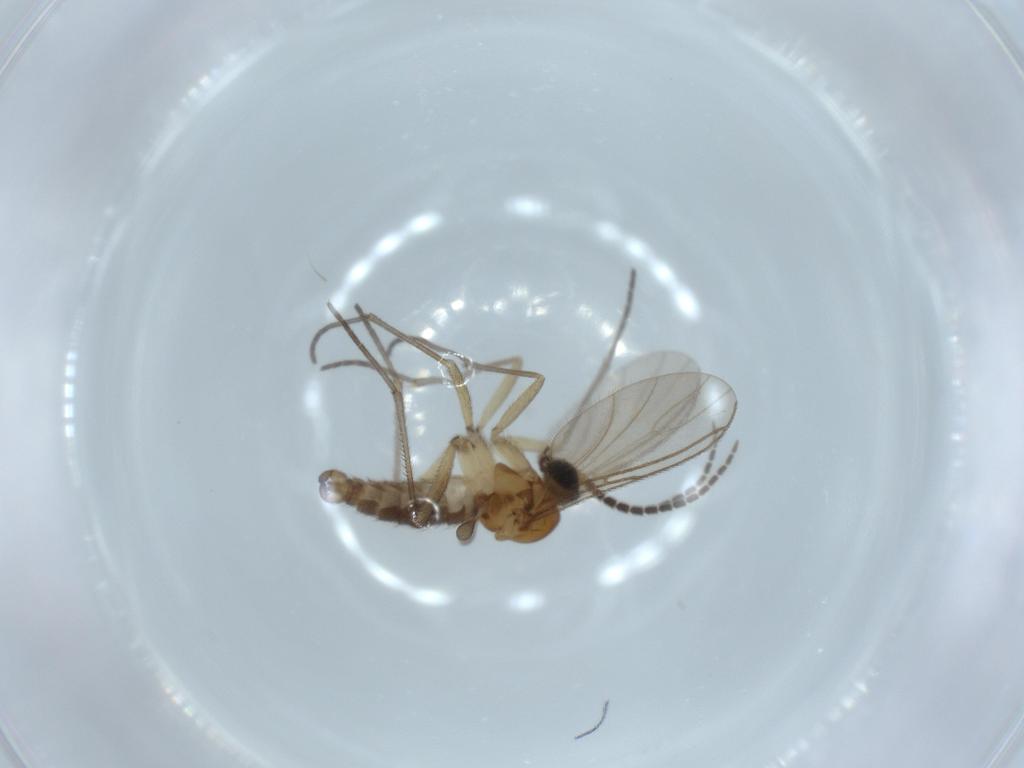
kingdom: Animalia
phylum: Arthropoda
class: Insecta
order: Diptera
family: Sciaridae
